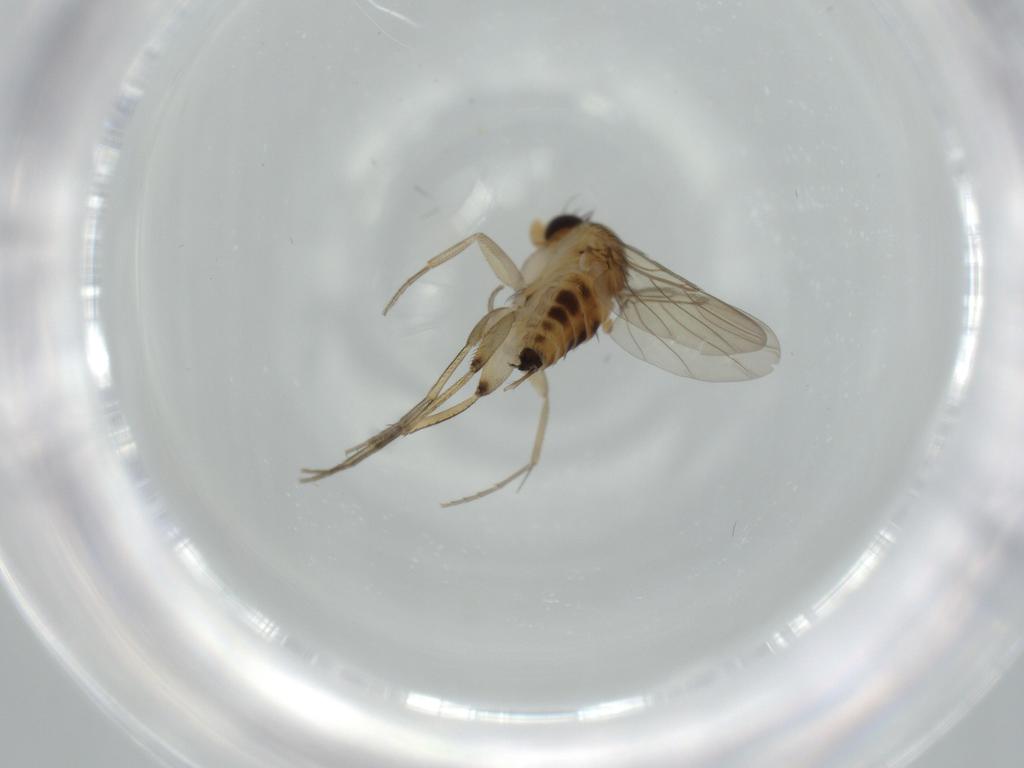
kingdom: Animalia
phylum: Arthropoda
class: Insecta
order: Diptera
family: Phoridae
